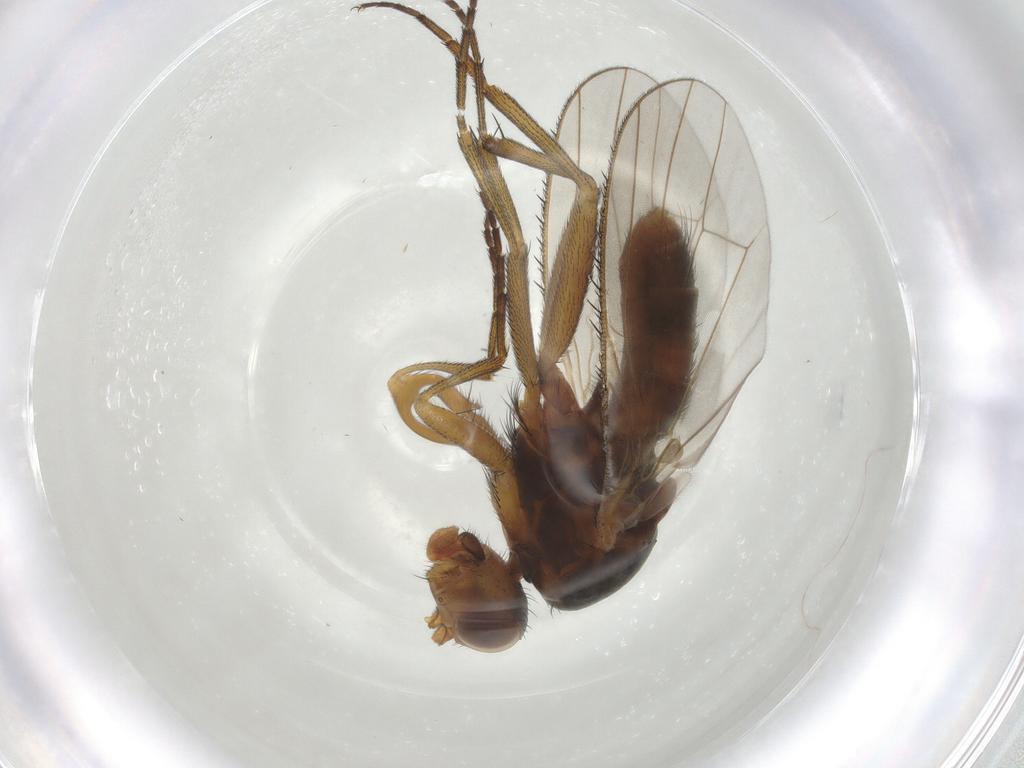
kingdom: Animalia
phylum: Arthropoda
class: Insecta
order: Diptera
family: Heleomyzidae
